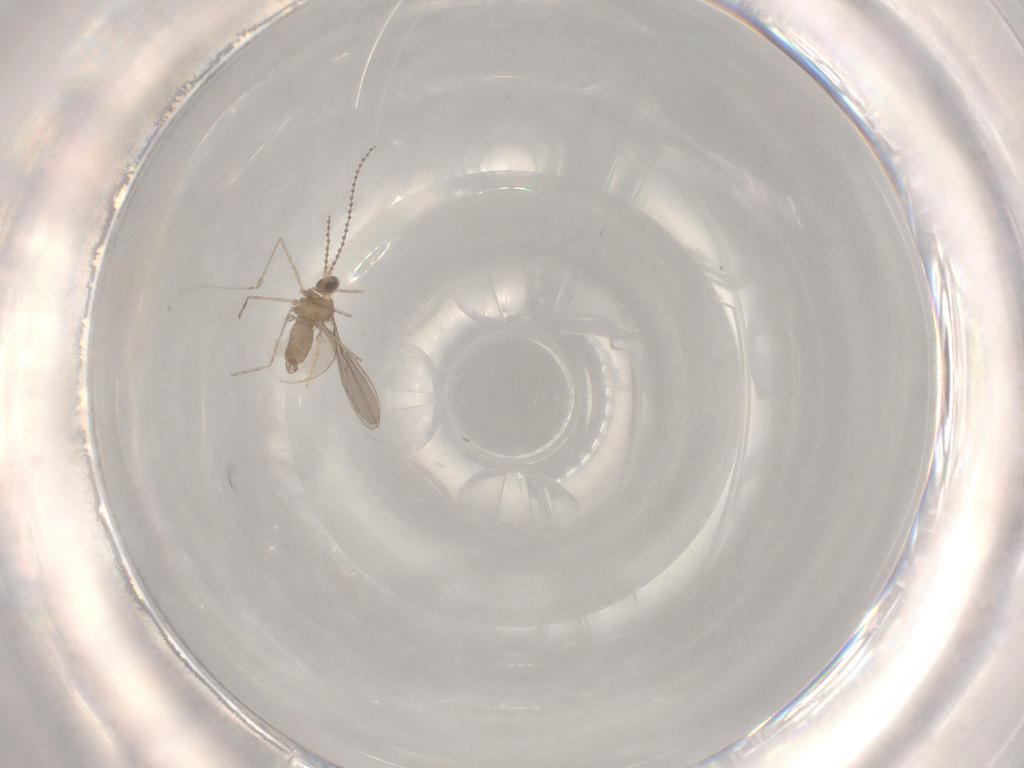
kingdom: Animalia
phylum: Arthropoda
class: Insecta
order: Diptera
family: Cecidomyiidae
